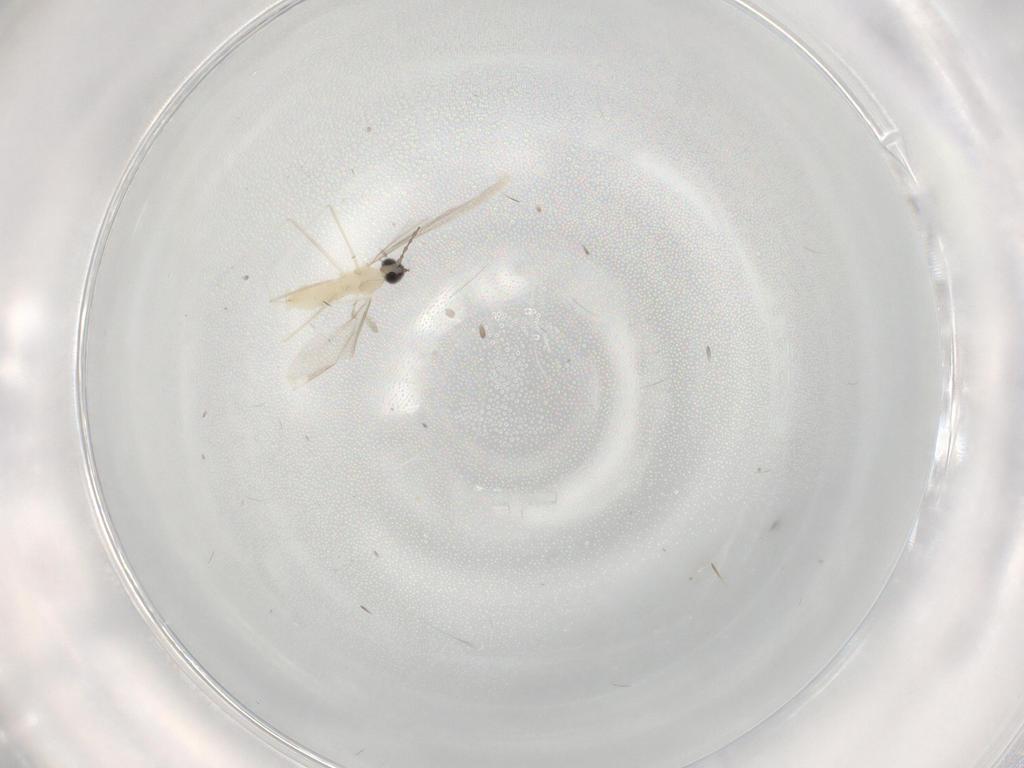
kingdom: Animalia
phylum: Arthropoda
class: Insecta
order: Diptera
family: Cecidomyiidae
